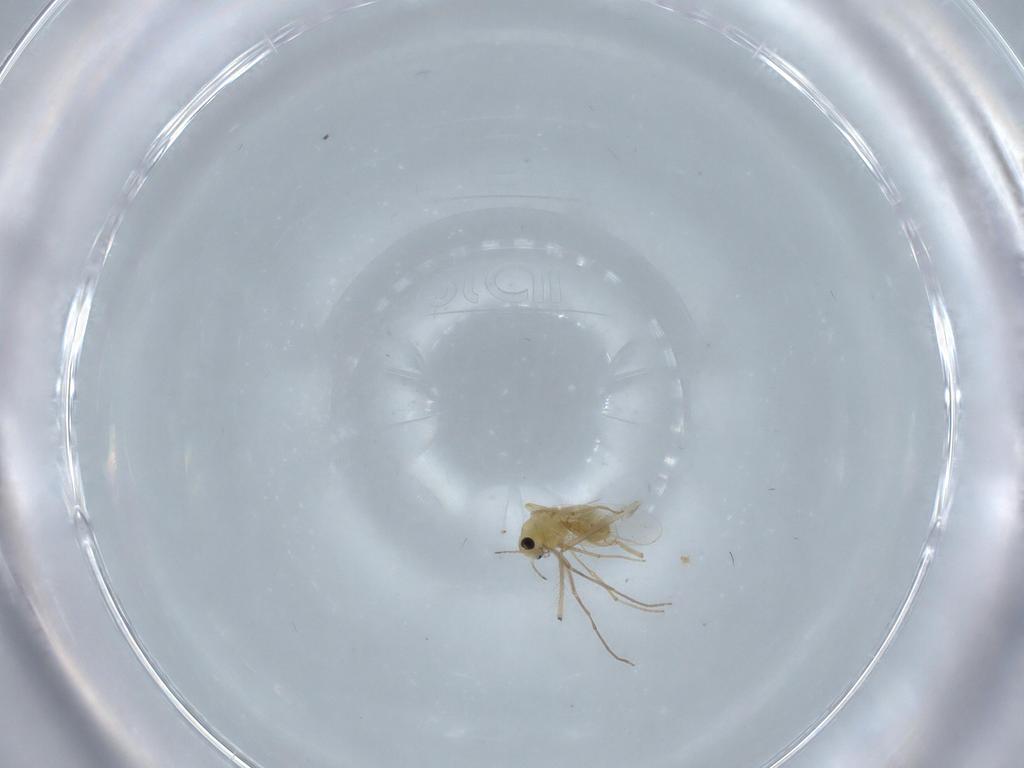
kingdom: Animalia
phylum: Arthropoda
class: Insecta
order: Diptera
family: Chironomidae
